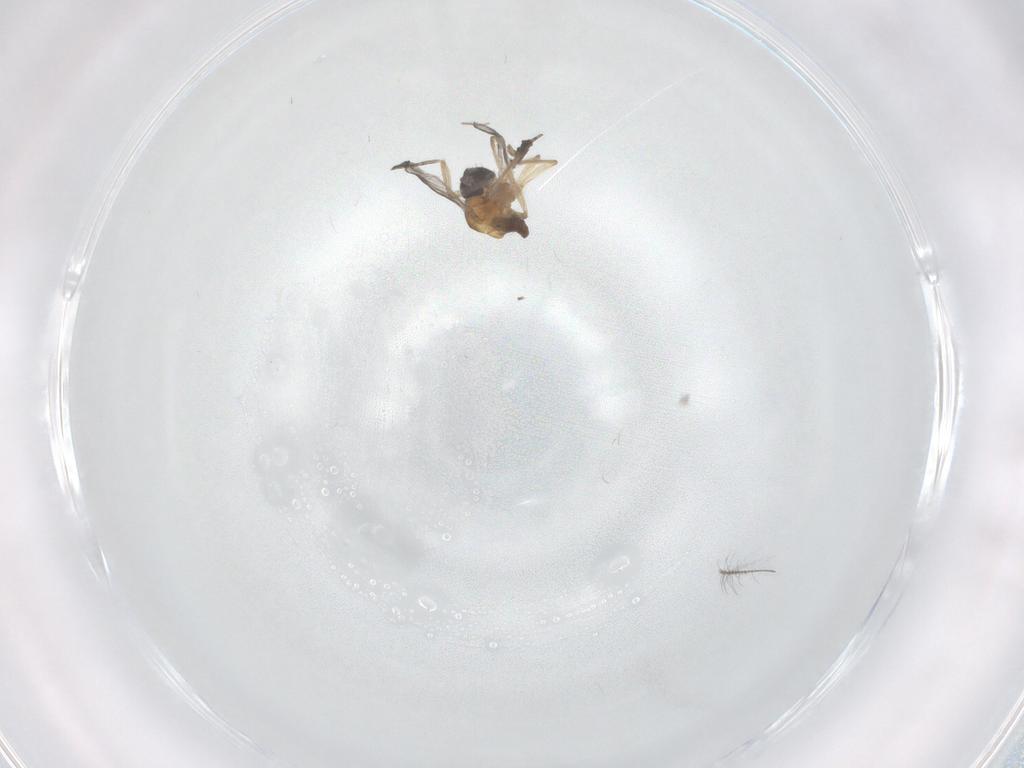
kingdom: Animalia
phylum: Arthropoda
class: Insecta
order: Diptera
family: Ceratopogonidae
